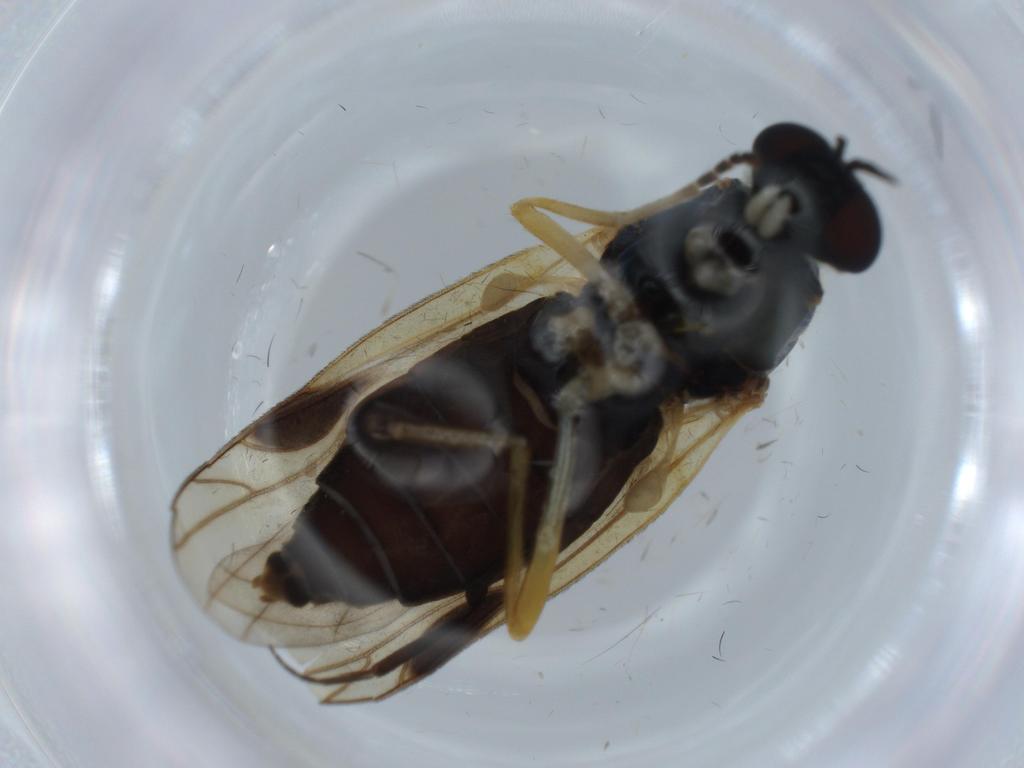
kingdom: Animalia
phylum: Arthropoda
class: Insecta
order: Diptera
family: Stratiomyidae
